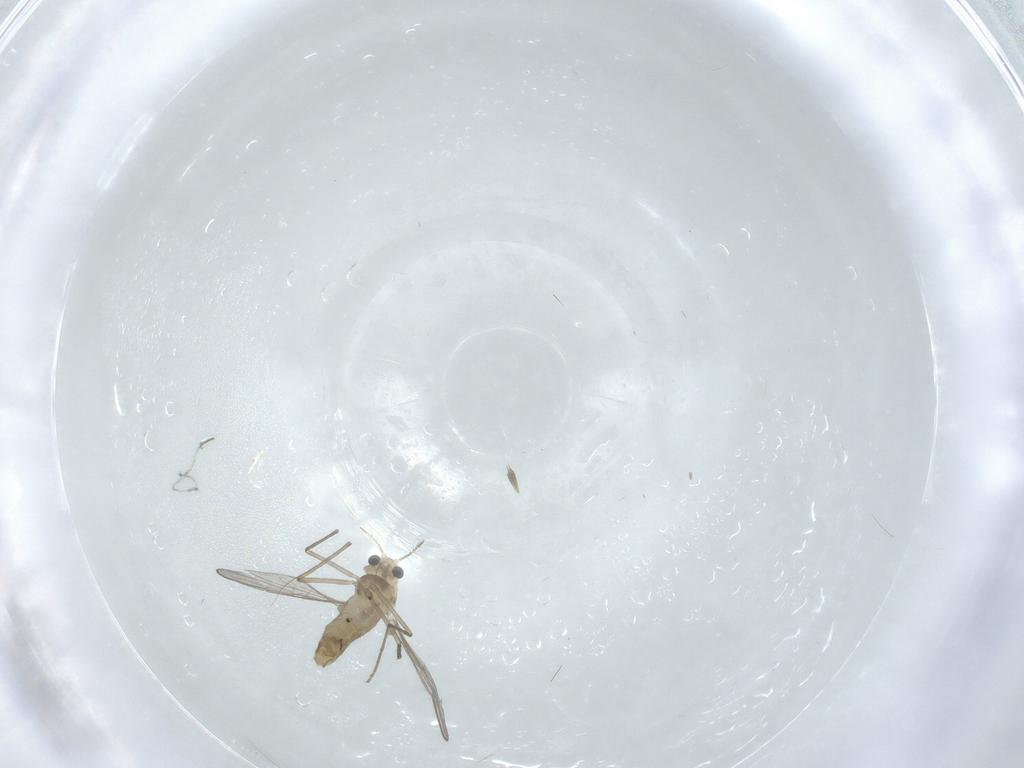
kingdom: Animalia
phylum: Arthropoda
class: Insecta
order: Diptera
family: Chironomidae
